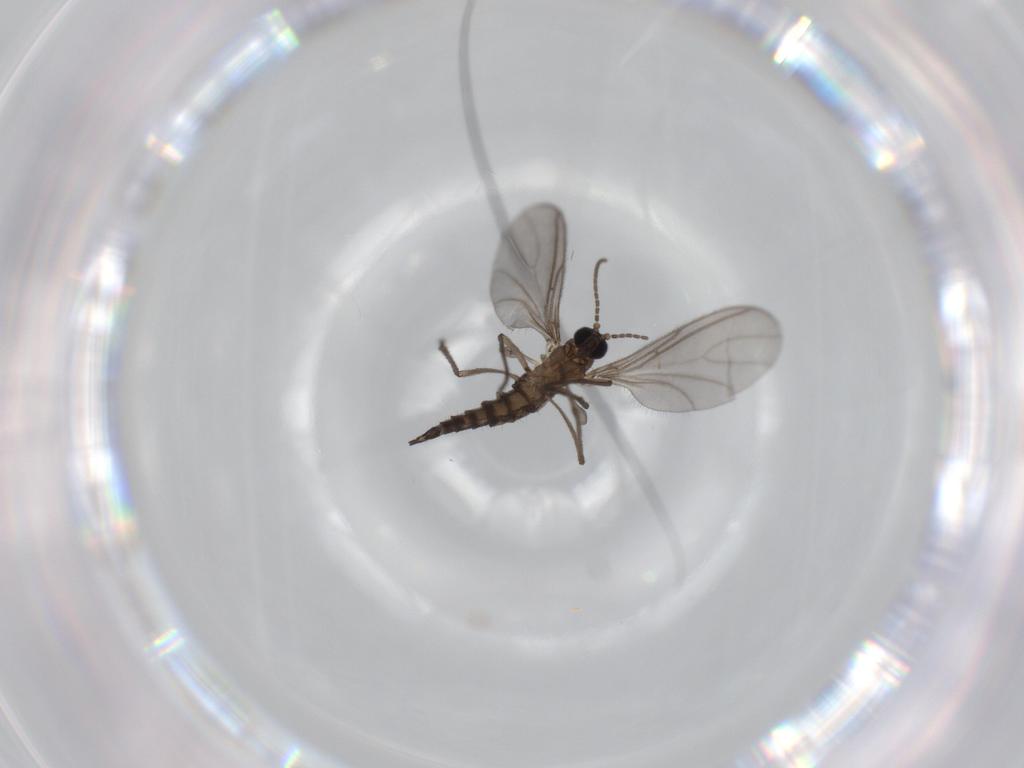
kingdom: Animalia
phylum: Arthropoda
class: Insecta
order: Diptera
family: Sciaridae
